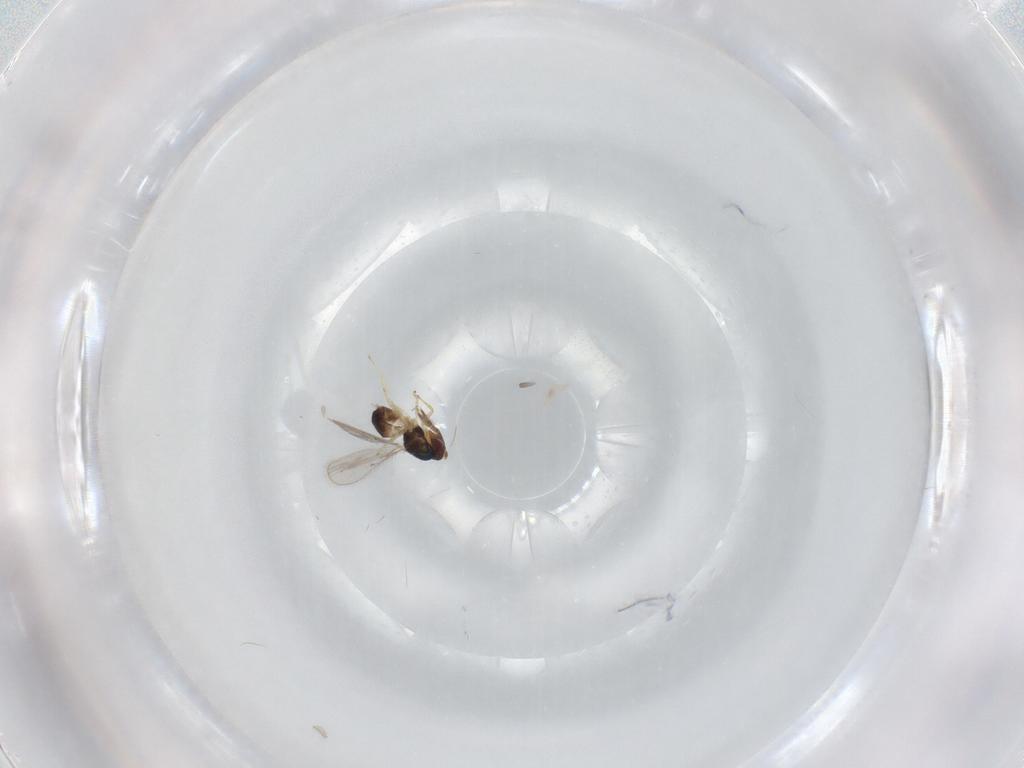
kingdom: Animalia
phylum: Arthropoda
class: Insecta
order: Hymenoptera
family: Eulophidae
